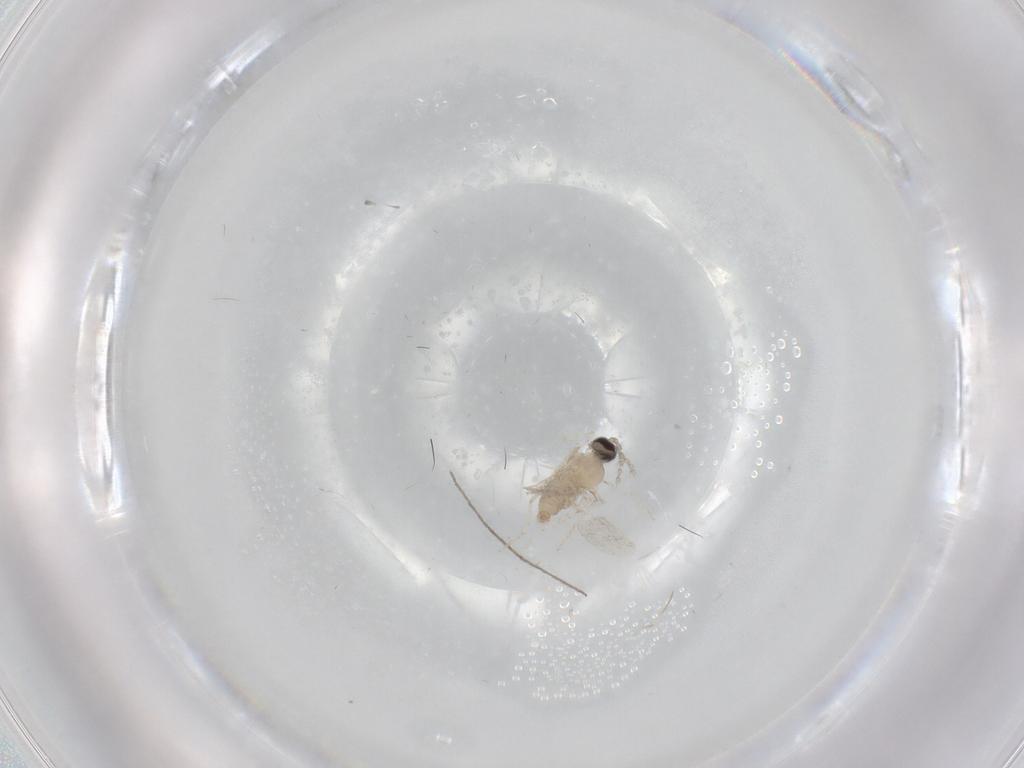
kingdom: Animalia
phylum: Arthropoda
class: Insecta
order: Diptera
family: Cecidomyiidae
